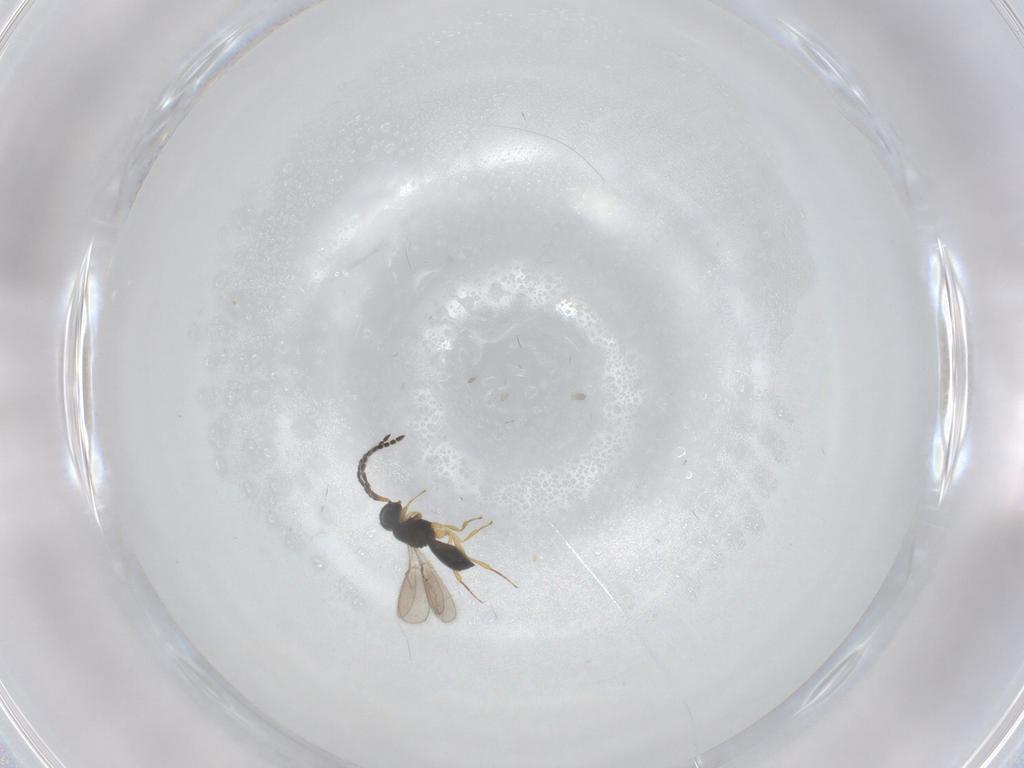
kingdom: Animalia
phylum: Arthropoda
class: Insecta
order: Hymenoptera
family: Scelionidae
